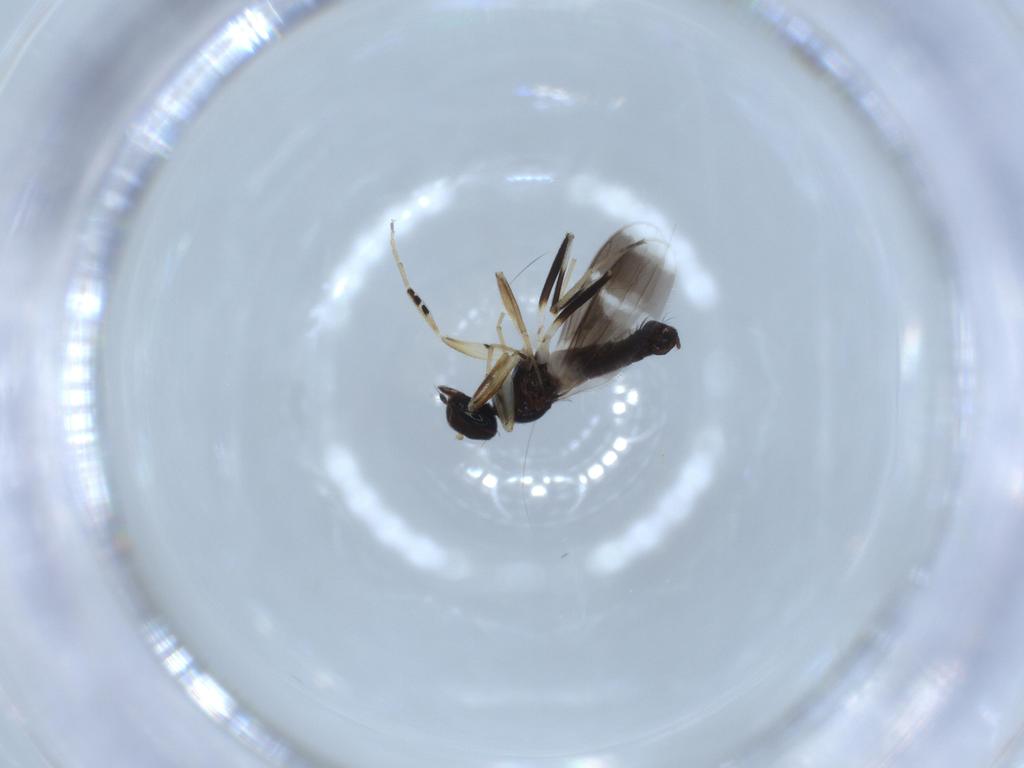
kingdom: Animalia
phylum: Arthropoda
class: Insecta
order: Diptera
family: Hybotidae
